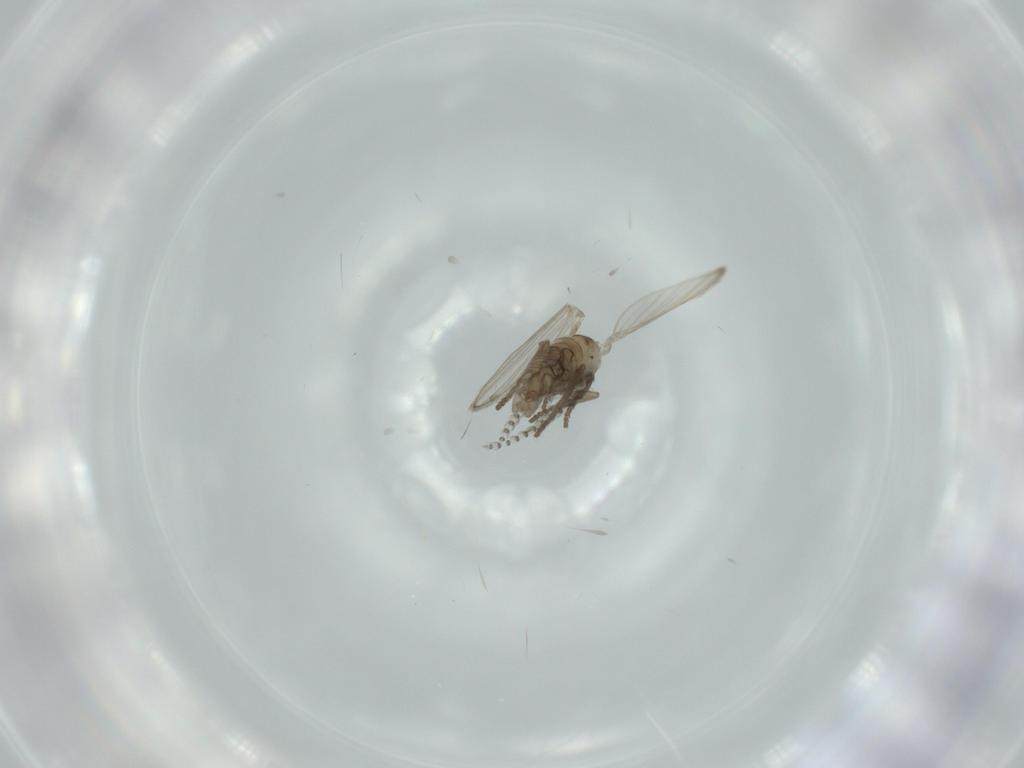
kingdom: Animalia
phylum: Arthropoda
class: Insecta
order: Diptera
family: Psychodidae
